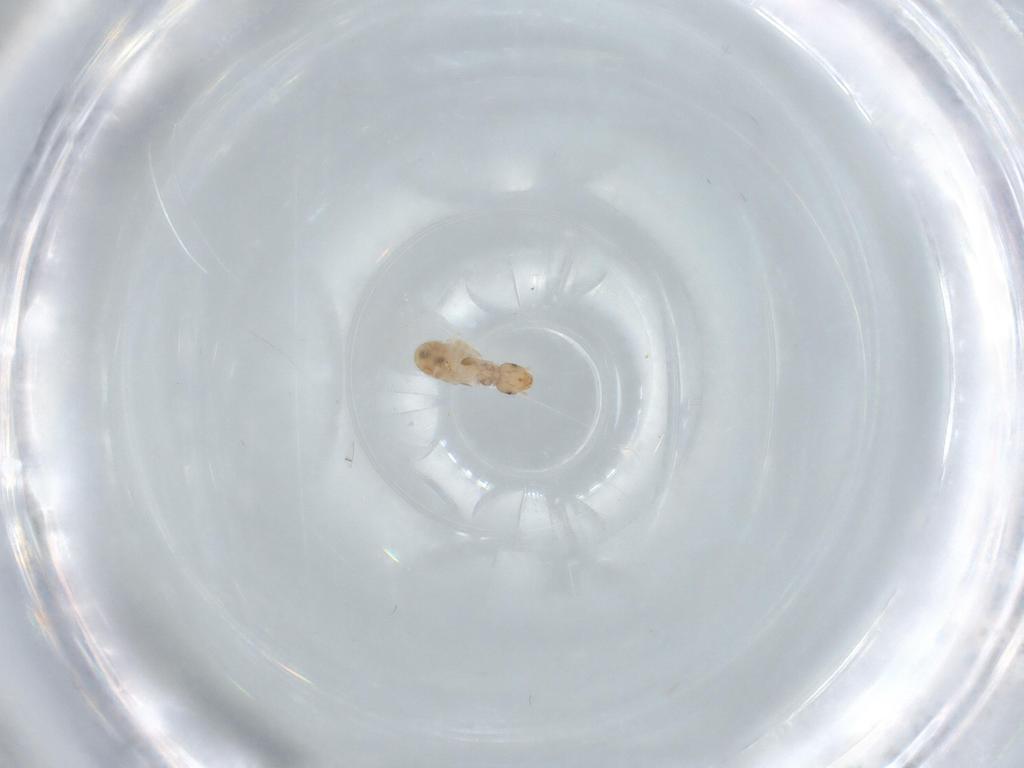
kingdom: Animalia
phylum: Arthropoda
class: Insecta
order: Psocodea
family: Liposcelididae
